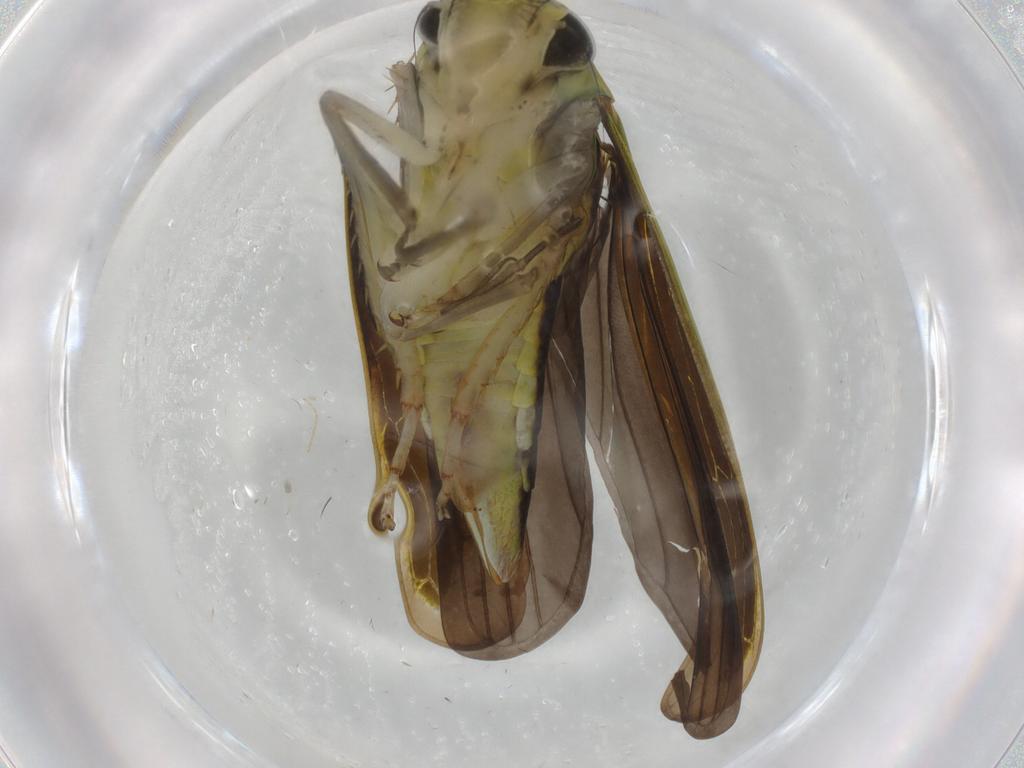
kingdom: Animalia
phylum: Arthropoda
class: Insecta
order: Hemiptera
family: Cicadellidae
